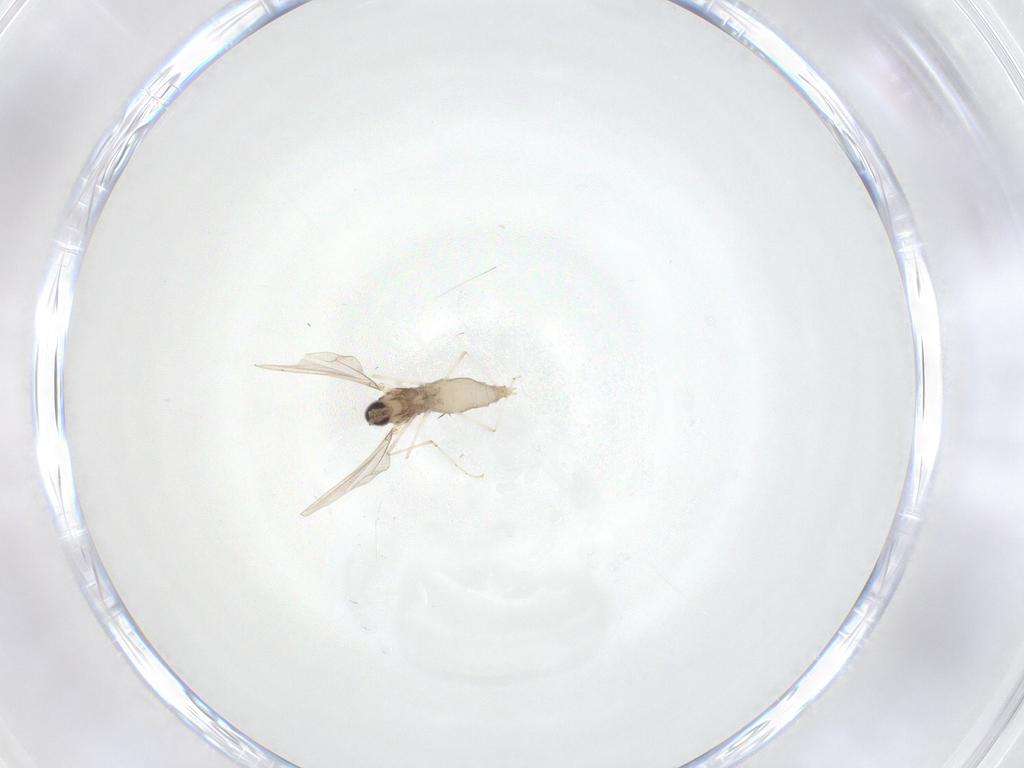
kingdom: Animalia
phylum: Arthropoda
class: Insecta
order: Diptera
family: Cecidomyiidae
